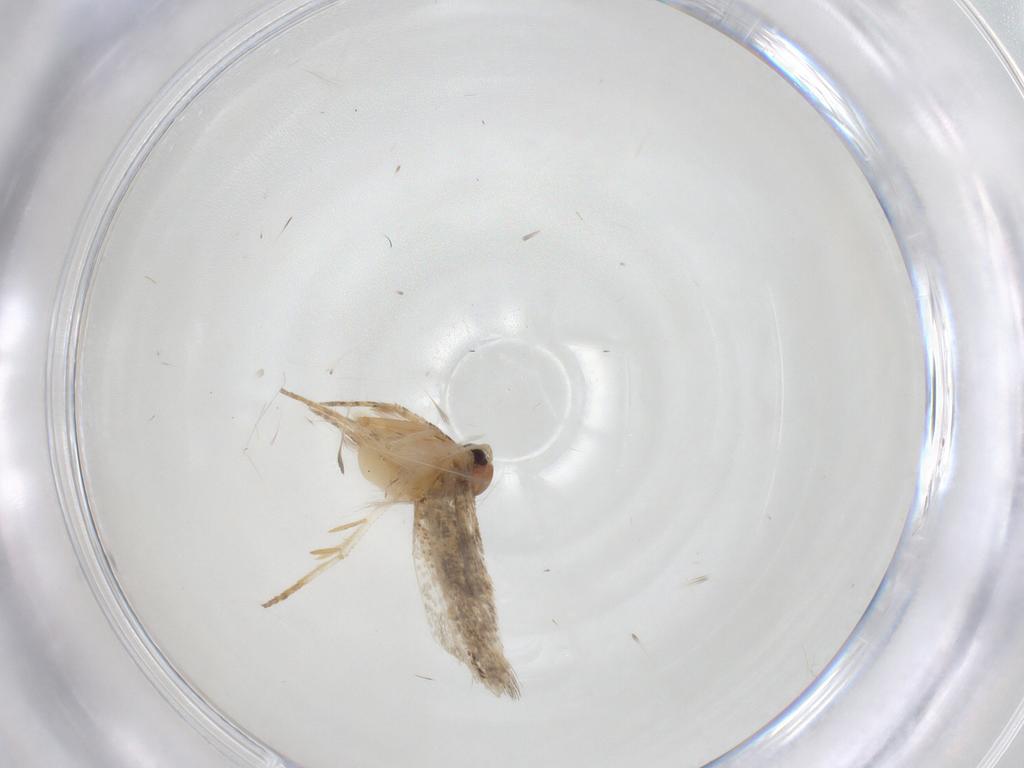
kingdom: Animalia
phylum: Arthropoda
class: Insecta
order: Lepidoptera
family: Gelechiidae
